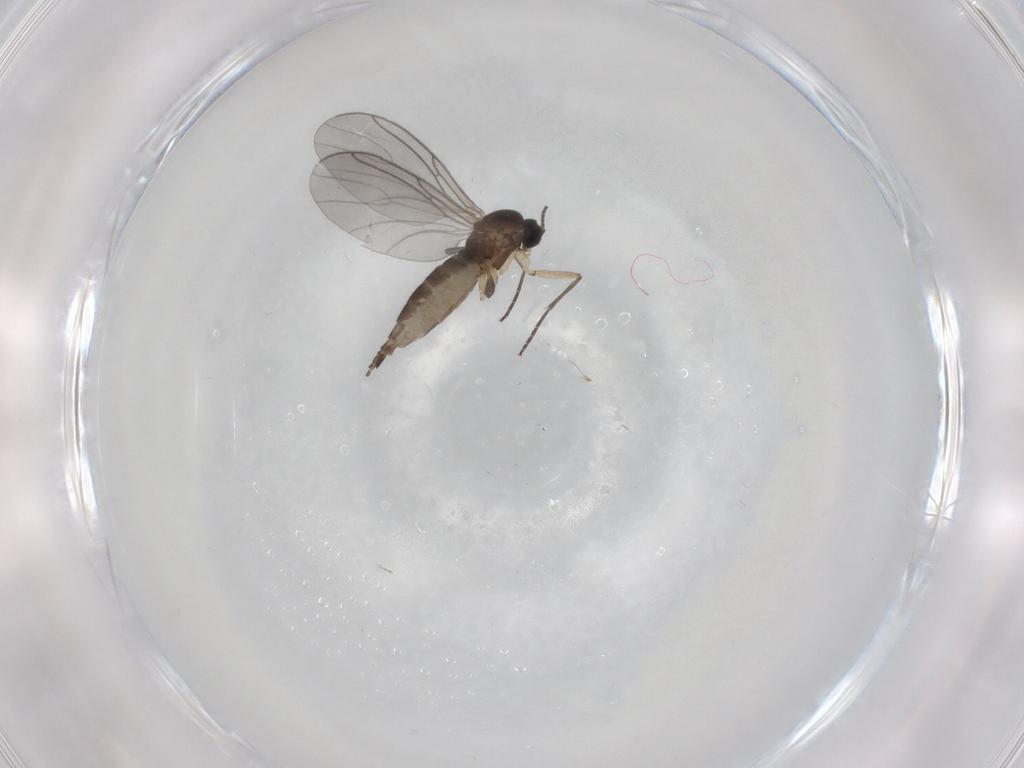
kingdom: Animalia
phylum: Arthropoda
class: Insecta
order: Diptera
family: Sciaridae
